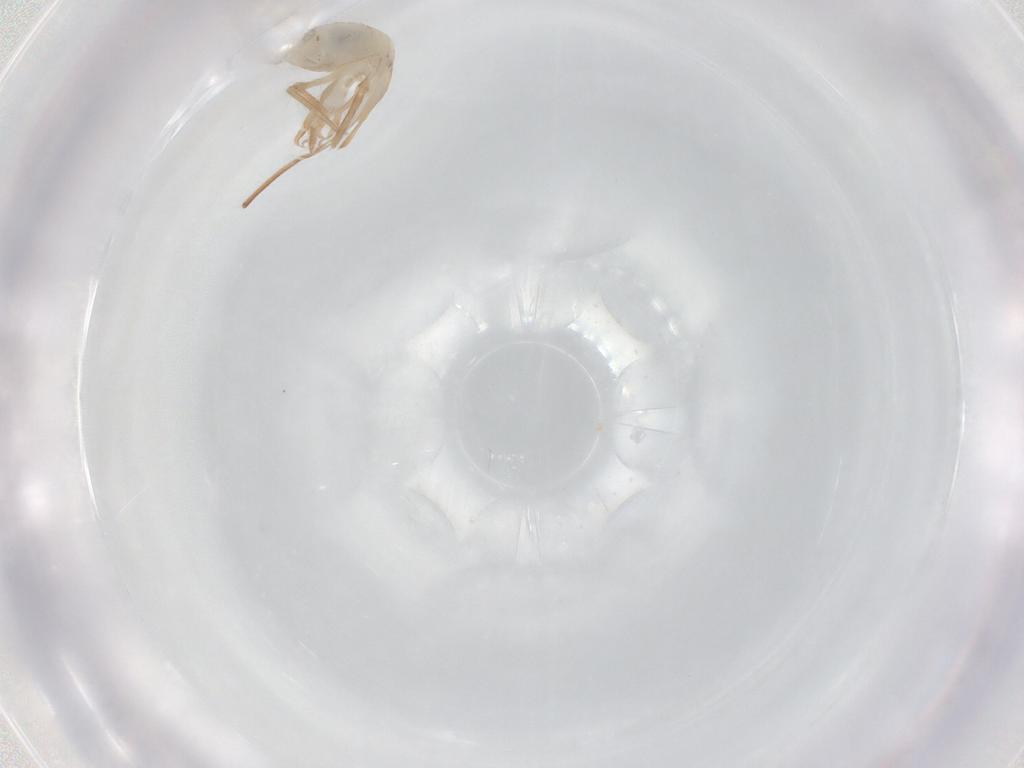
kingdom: Animalia
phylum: Arthropoda
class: Collembola
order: Entomobryomorpha
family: Entomobryidae
